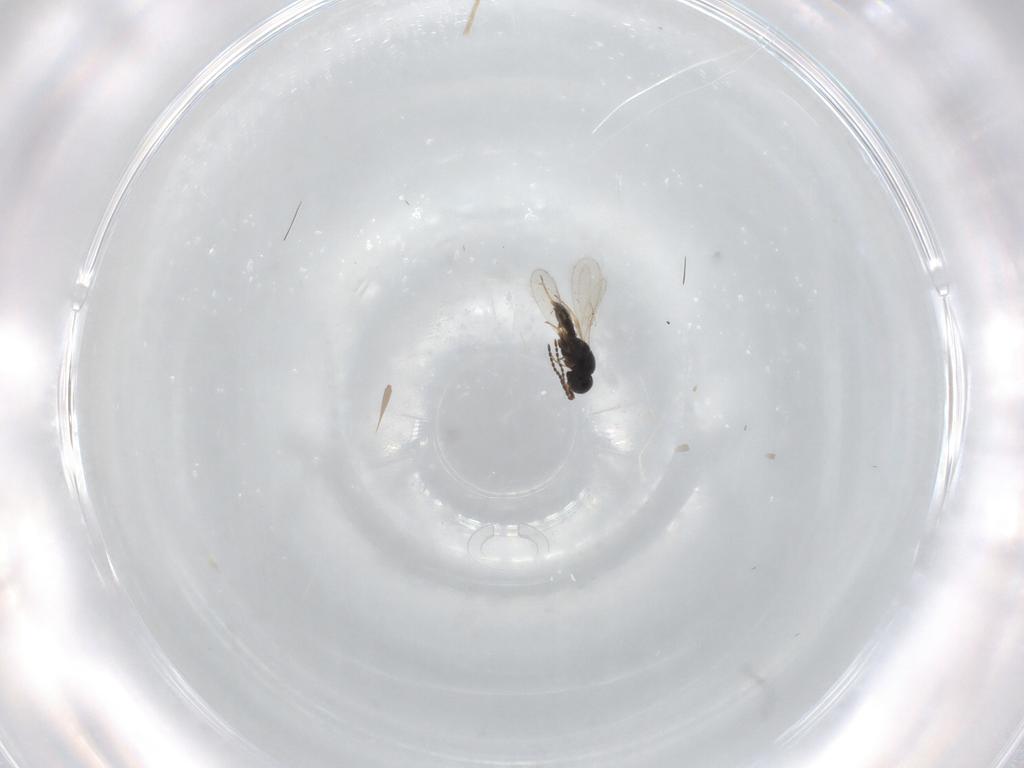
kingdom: Animalia
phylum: Arthropoda
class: Insecta
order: Hymenoptera
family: Scelionidae
